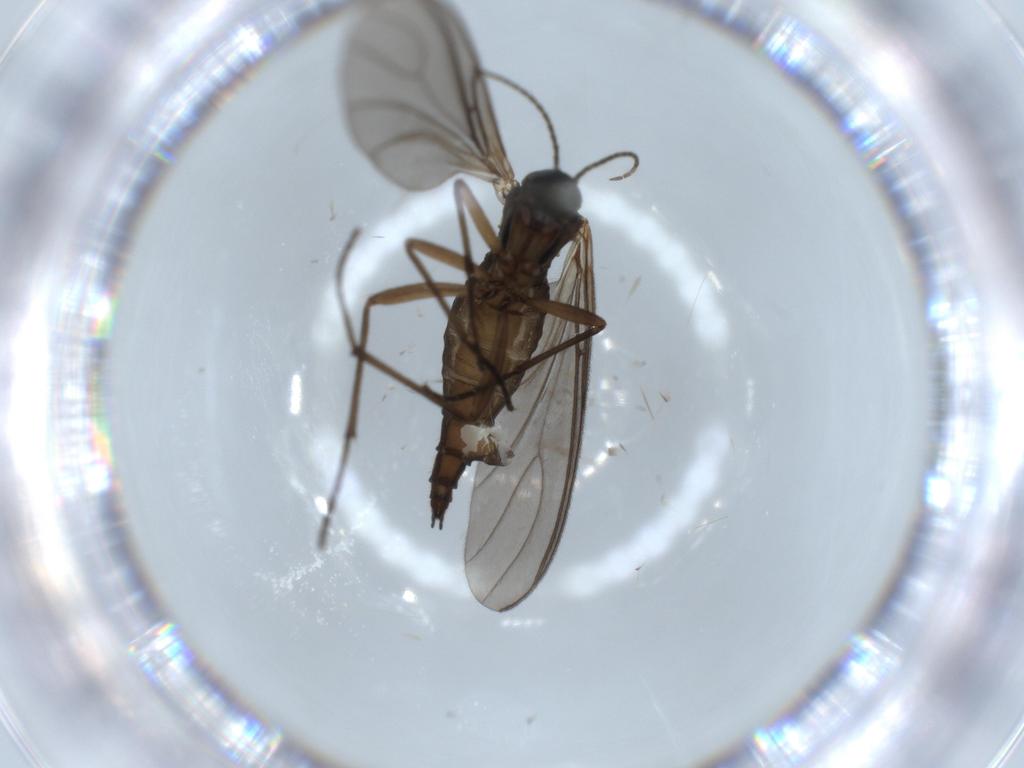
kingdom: Animalia
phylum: Arthropoda
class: Insecta
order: Diptera
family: Sciaridae
